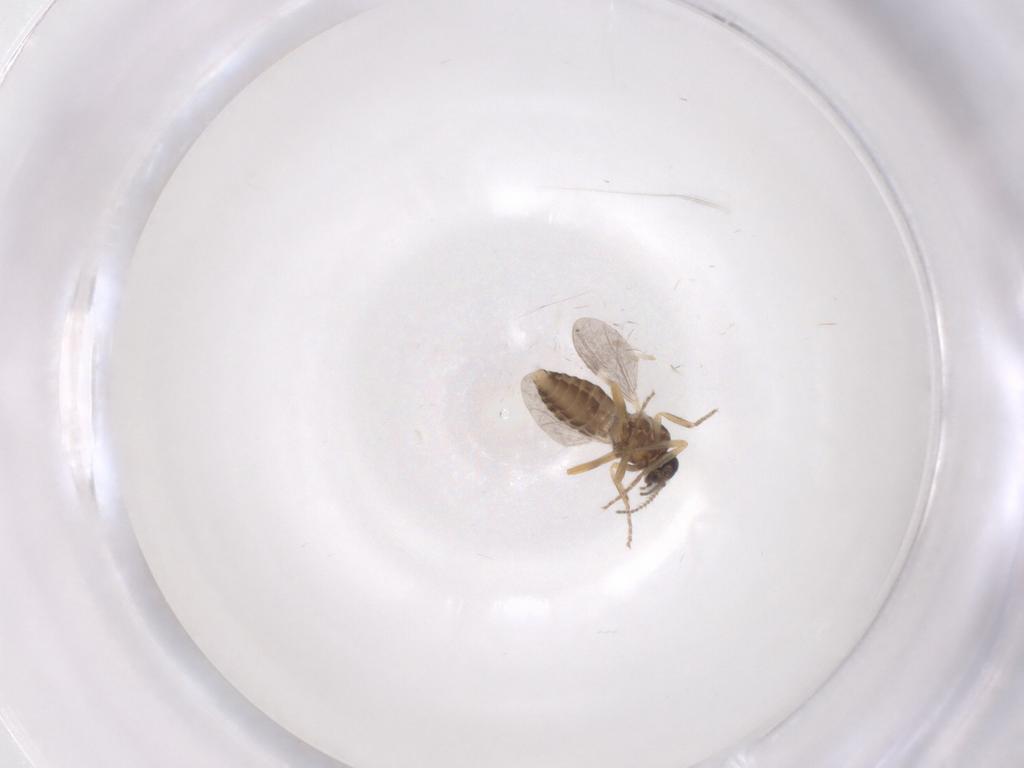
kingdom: Animalia
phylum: Arthropoda
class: Insecta
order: Diptera
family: Ceratopogonidae
